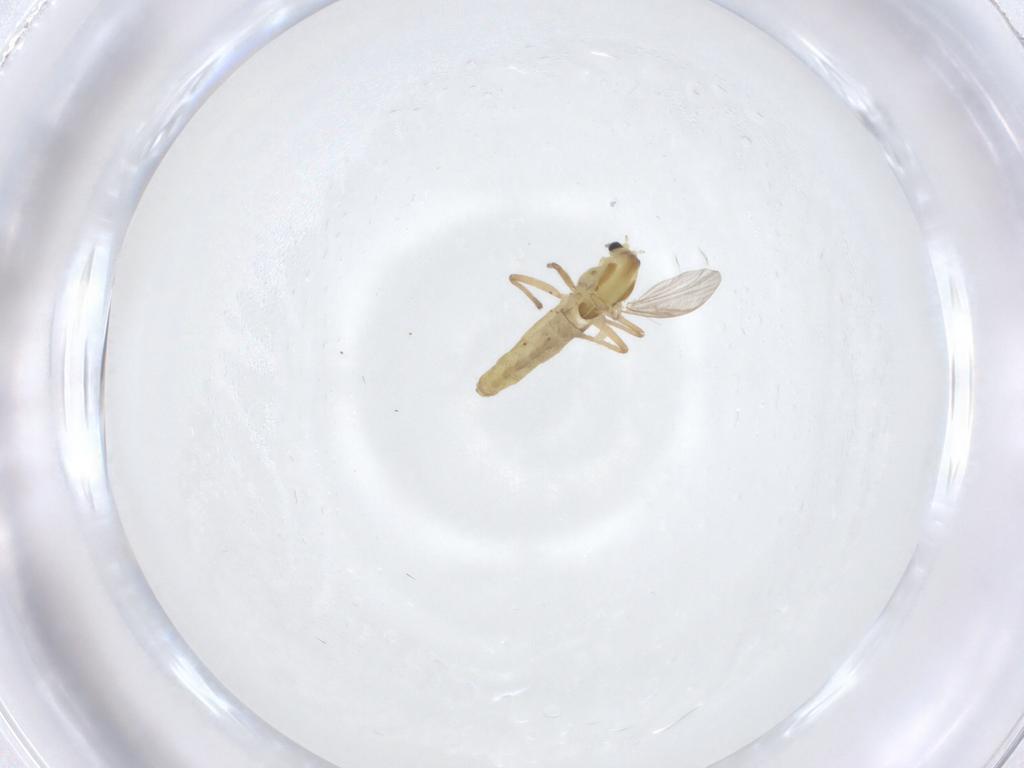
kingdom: Animalia
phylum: Arthropoda
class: Insecta
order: Diptera
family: Chironomidae
